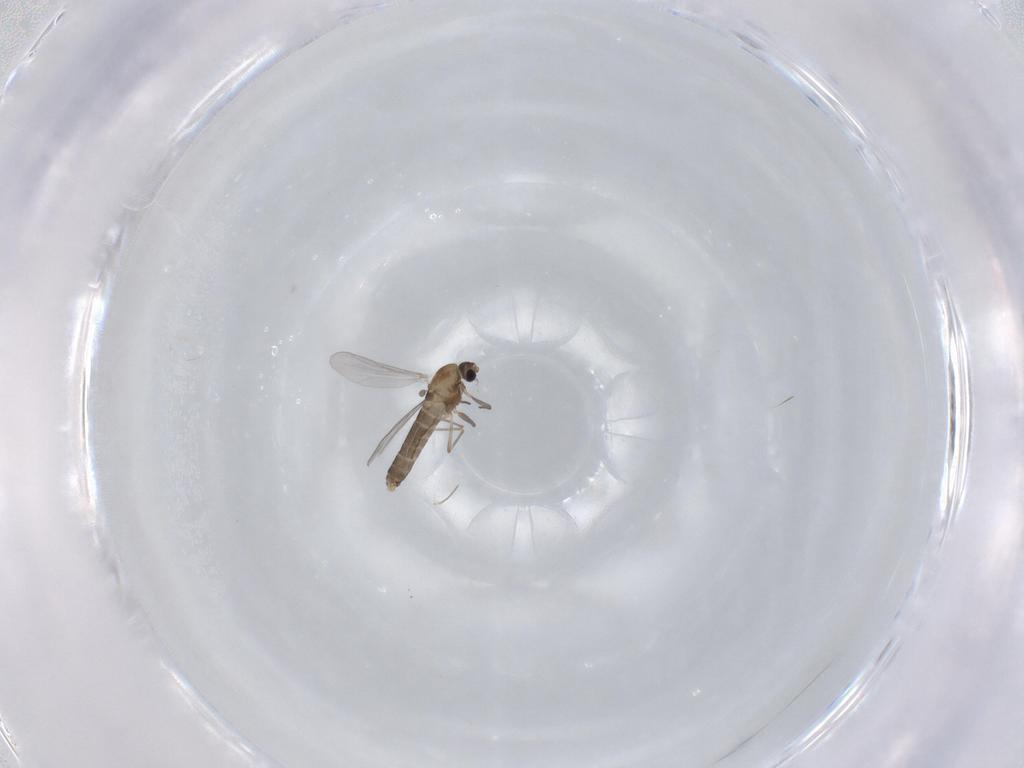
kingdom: Animalia
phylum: Arthropoda
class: Insecta
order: Diptera
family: Chironomidae
